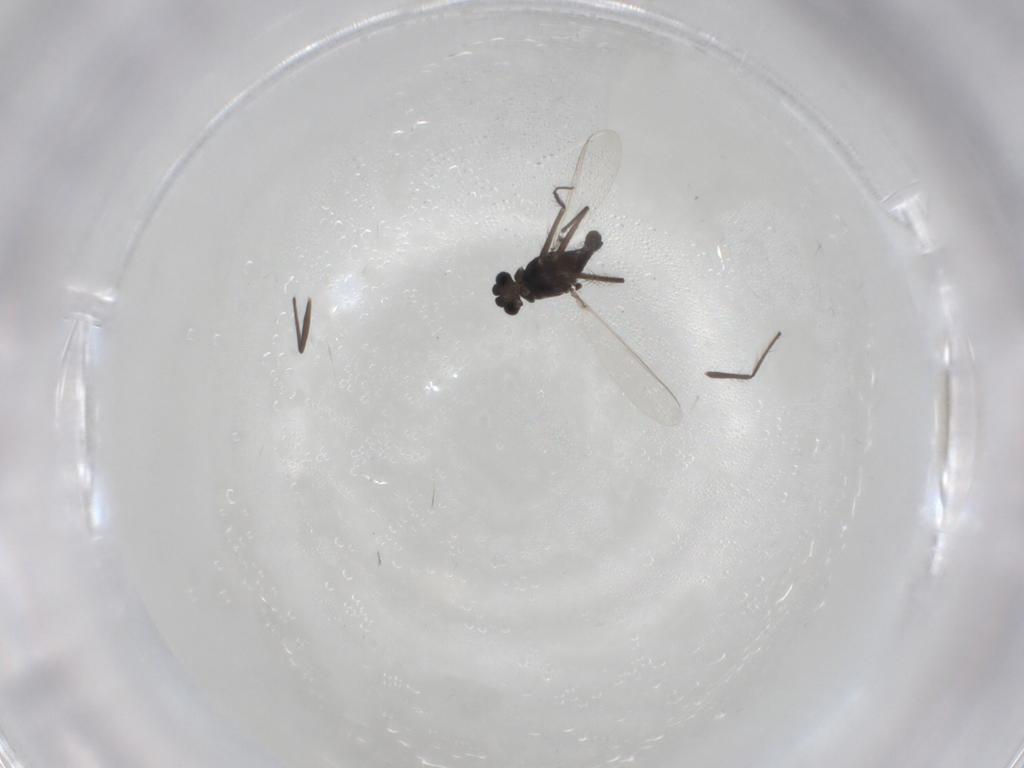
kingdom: Animalia
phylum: Arthropoda
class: Insecta
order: Diptera
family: Chironomidae
